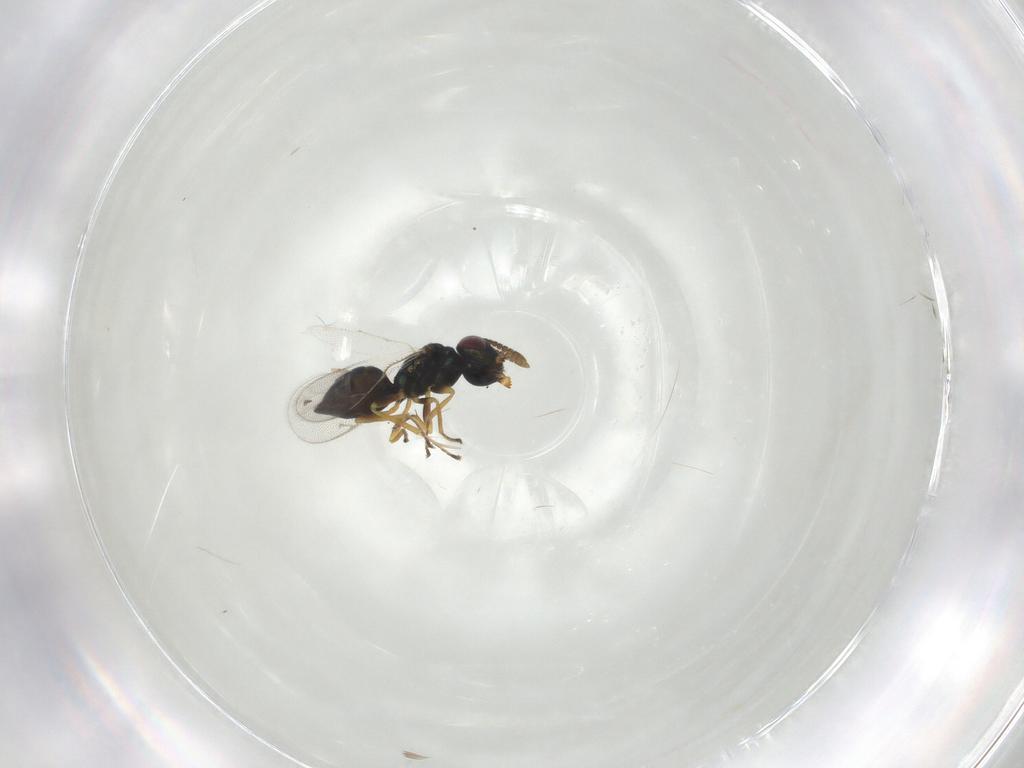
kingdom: Animalia
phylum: Arthropoda
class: Insecta
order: Hymenoptera
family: Pteromalidae
